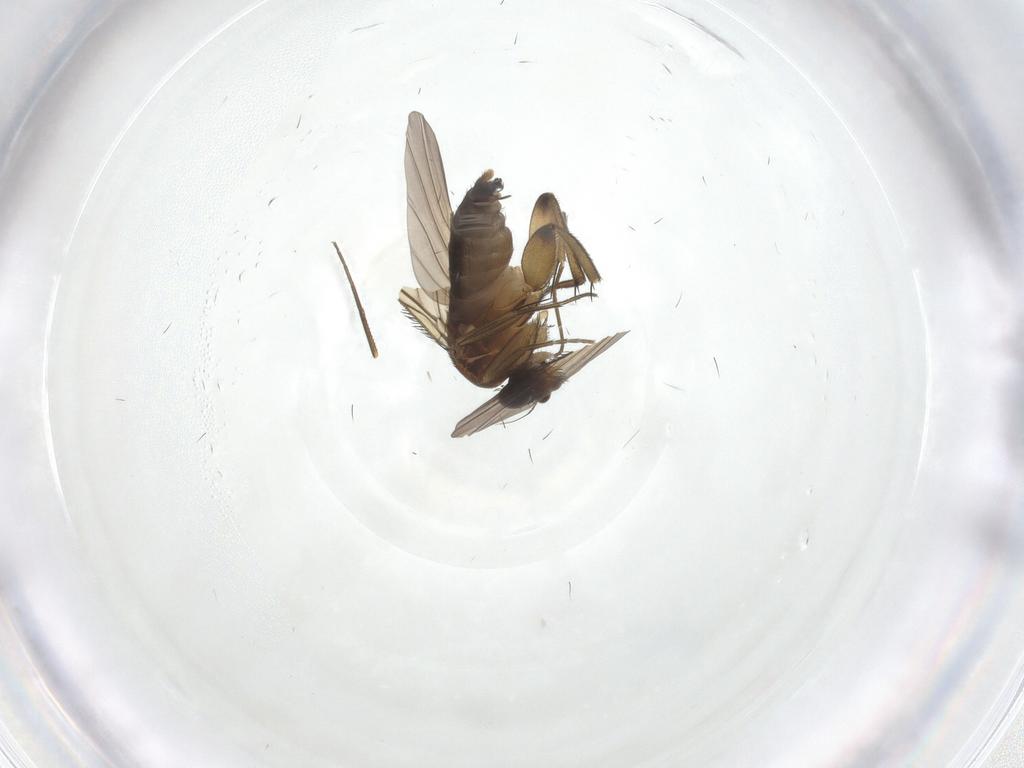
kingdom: Animalia
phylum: Arthropoda
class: Insecta
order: Diptera
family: Phoridae
